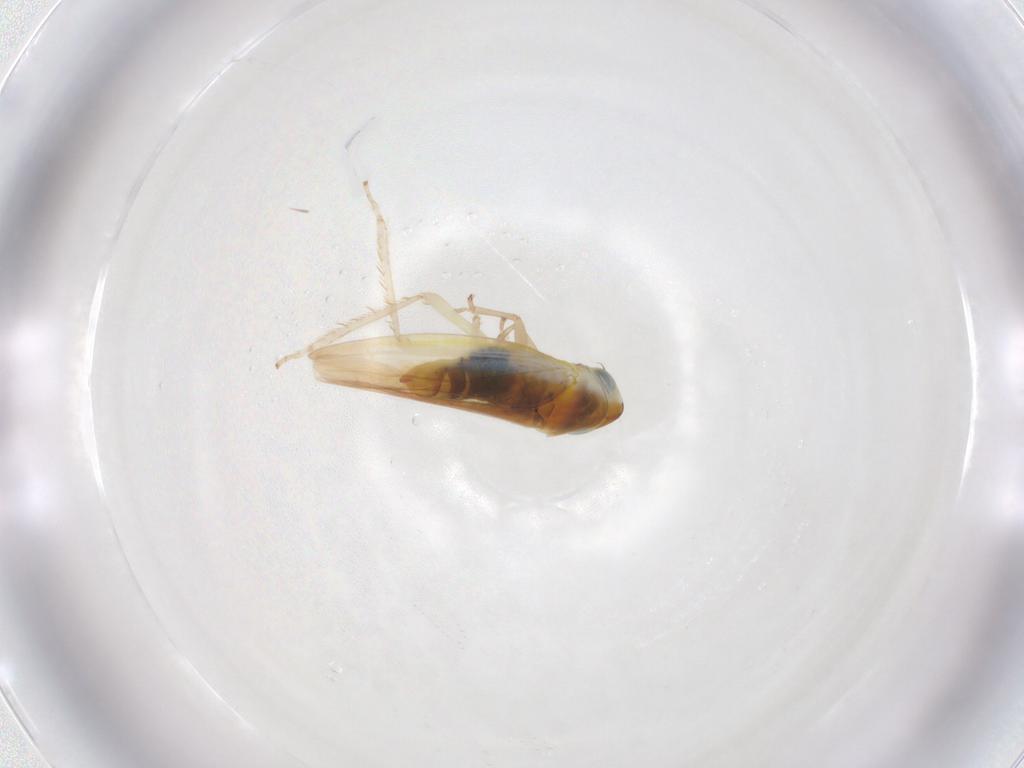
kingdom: Animalia
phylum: Arthropoda
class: Insecta
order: Hemiptera
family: Cicadellidae
